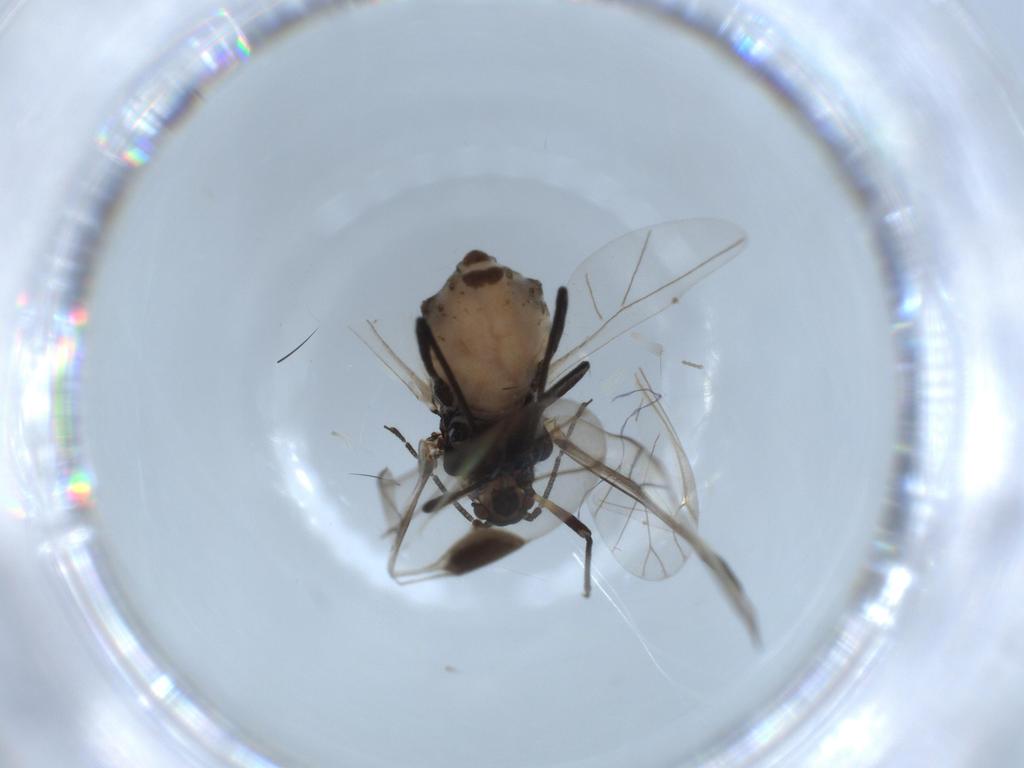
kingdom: Animalia
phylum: Arthropoda
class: Insecta
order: Hemiptera
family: Aphididae
